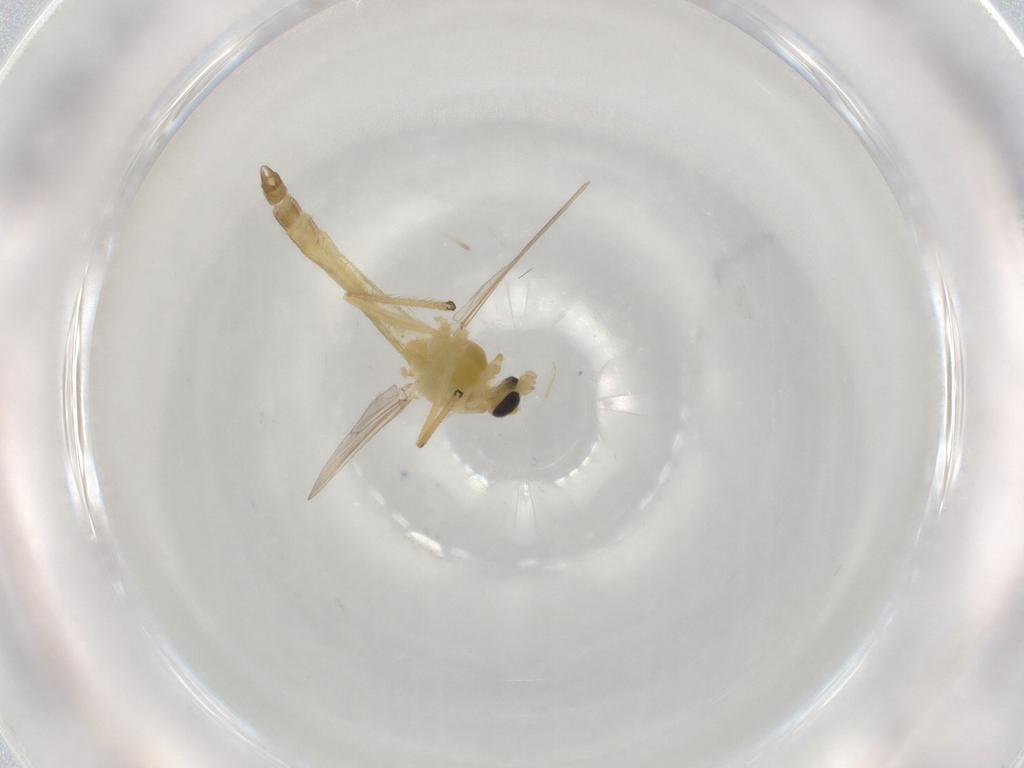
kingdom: Animalia
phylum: Arthropoda
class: Insecta
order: Diptera
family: Chironomidae
